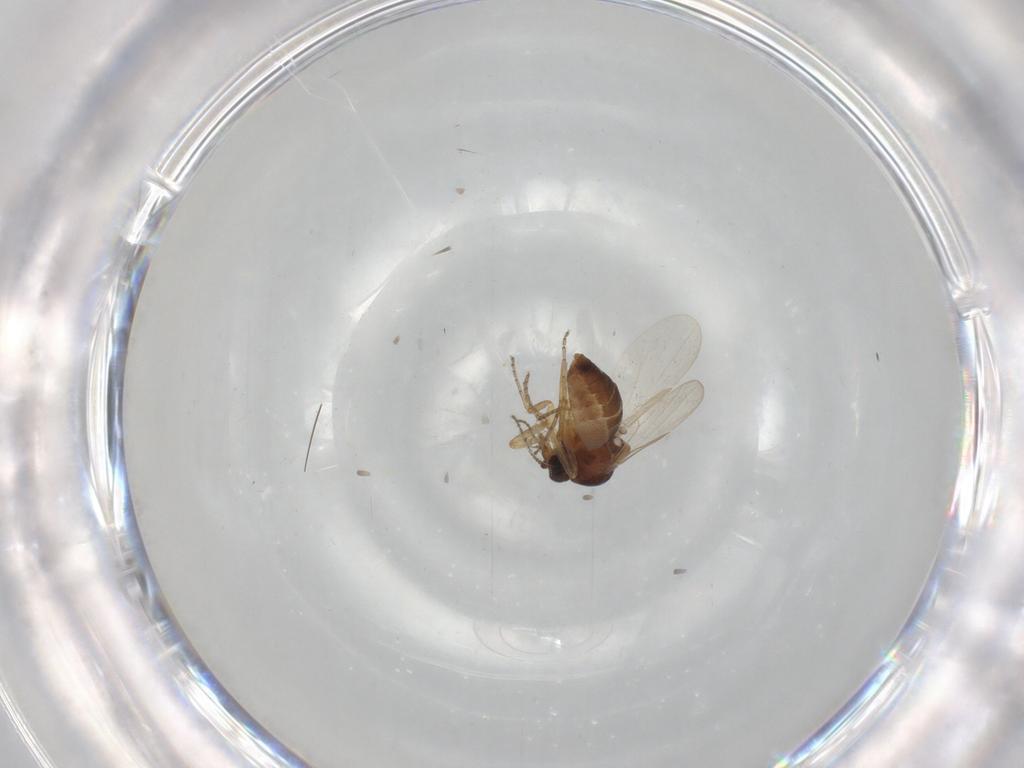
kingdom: Animalia
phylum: Arthropoda
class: Insecta
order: Diptera
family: Ceratopogonidae
